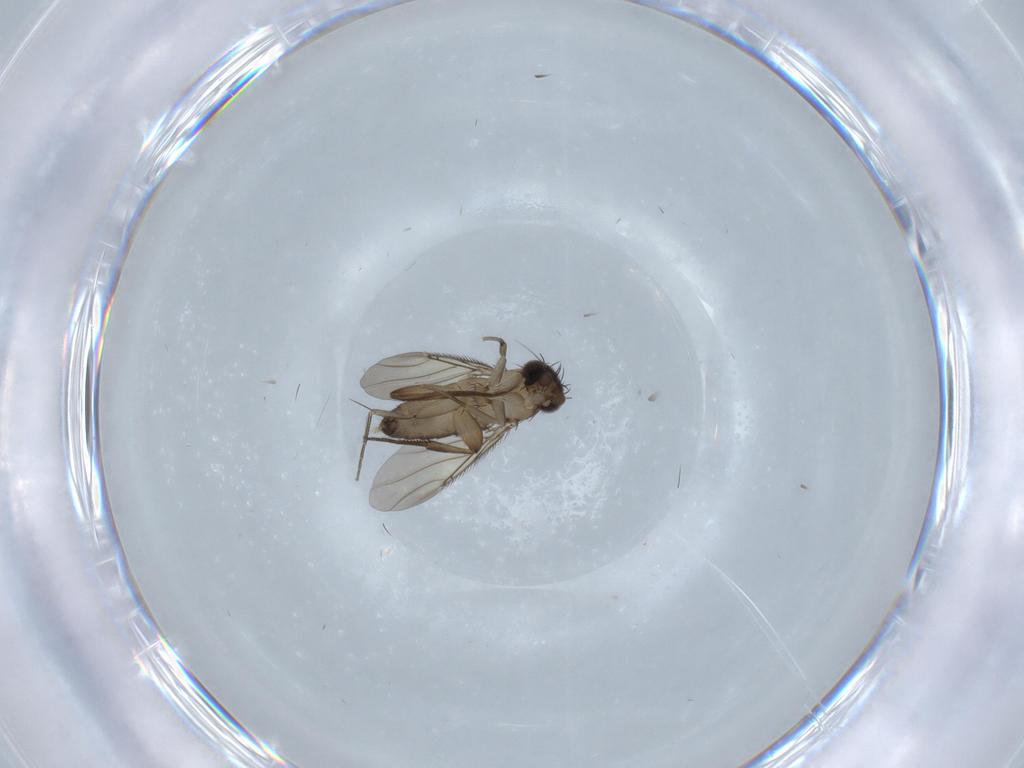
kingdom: Animalia
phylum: Arthropoda
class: Insecta
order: Diptera
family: Phoridae
